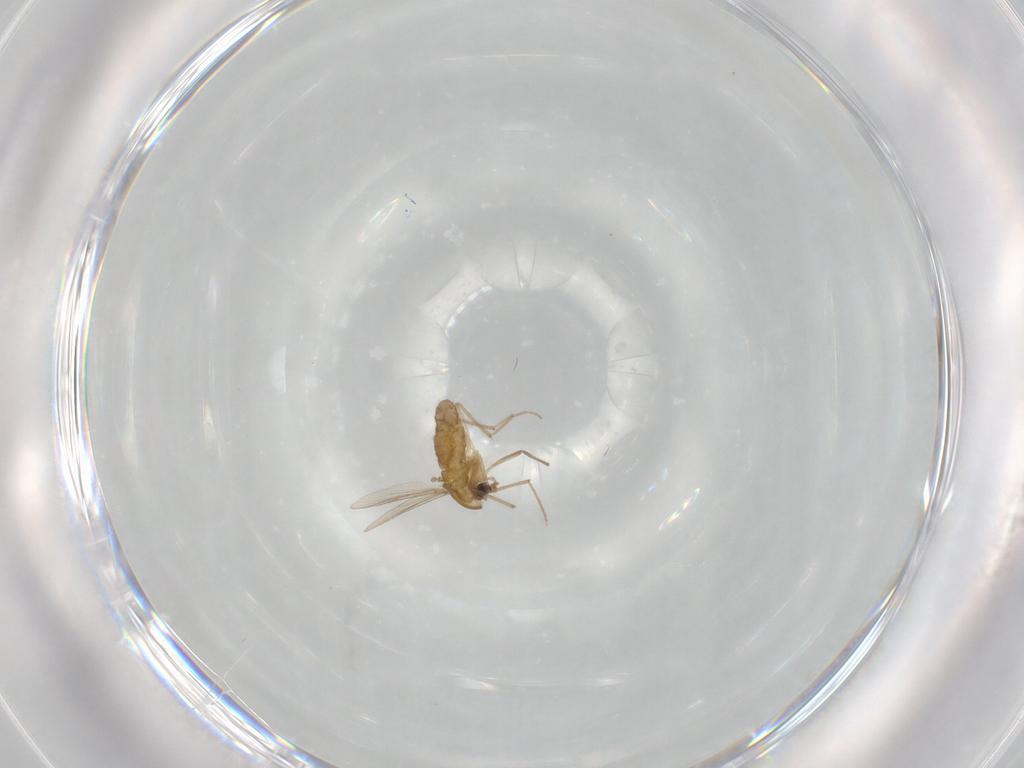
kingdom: Animalia
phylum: Arthropoda
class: Insecta
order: Diptera
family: Chironomidae
